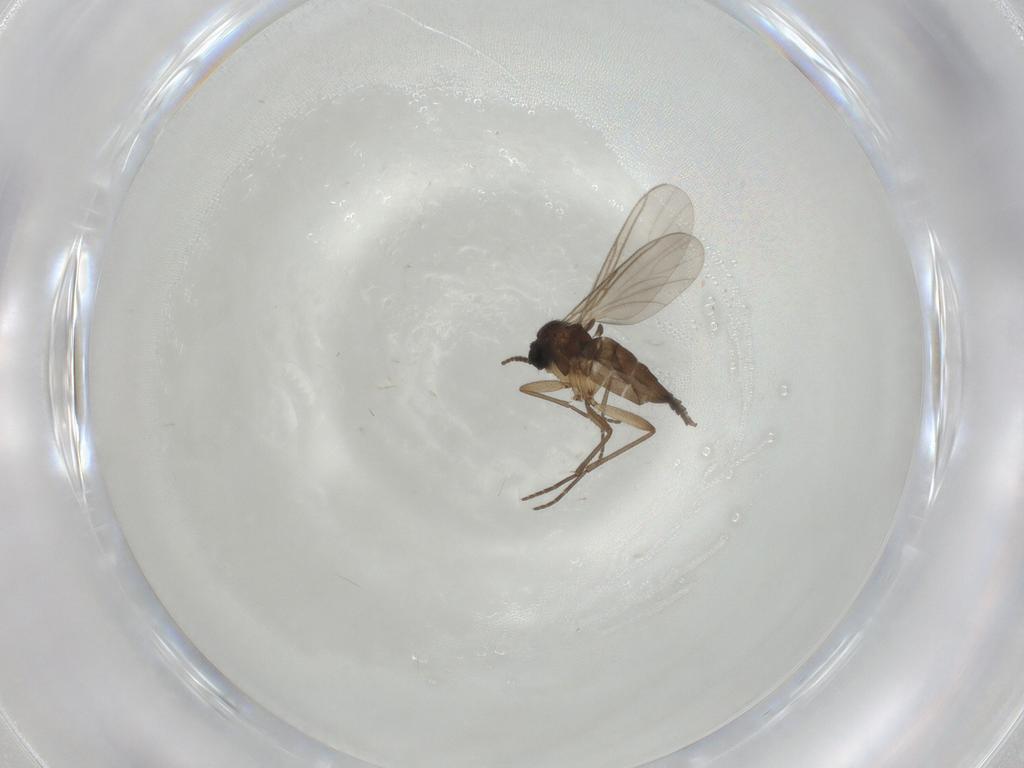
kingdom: Animalia
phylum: Arthropoda
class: Insecta
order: Diptera
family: Sciaridae
